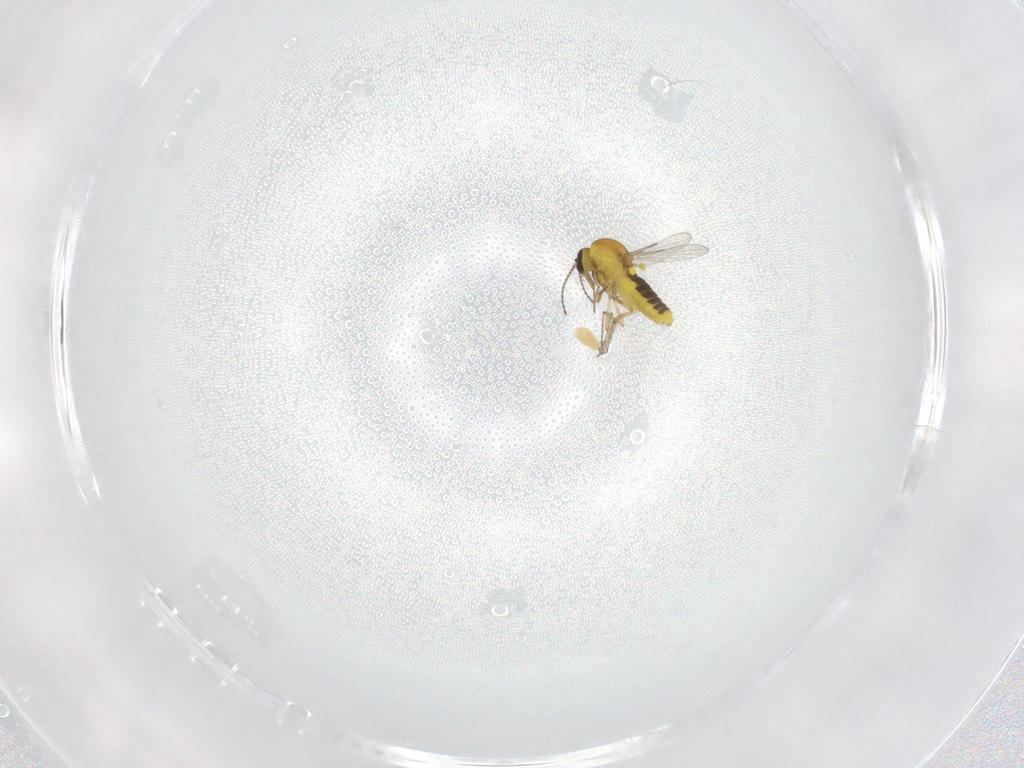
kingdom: Animalia
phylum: Arthropoda
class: Insecta
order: Diptera
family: Ceratopogonidae
